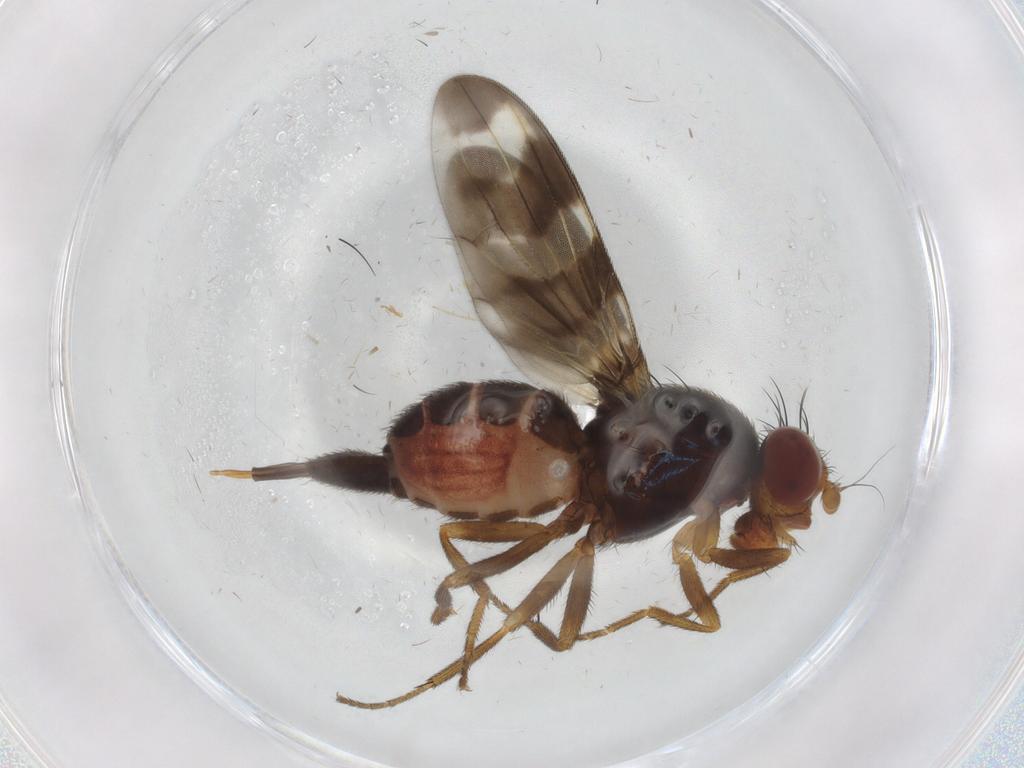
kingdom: Animalia
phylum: Arthropoda
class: Insecta
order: Diptera
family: Ulidiidae
